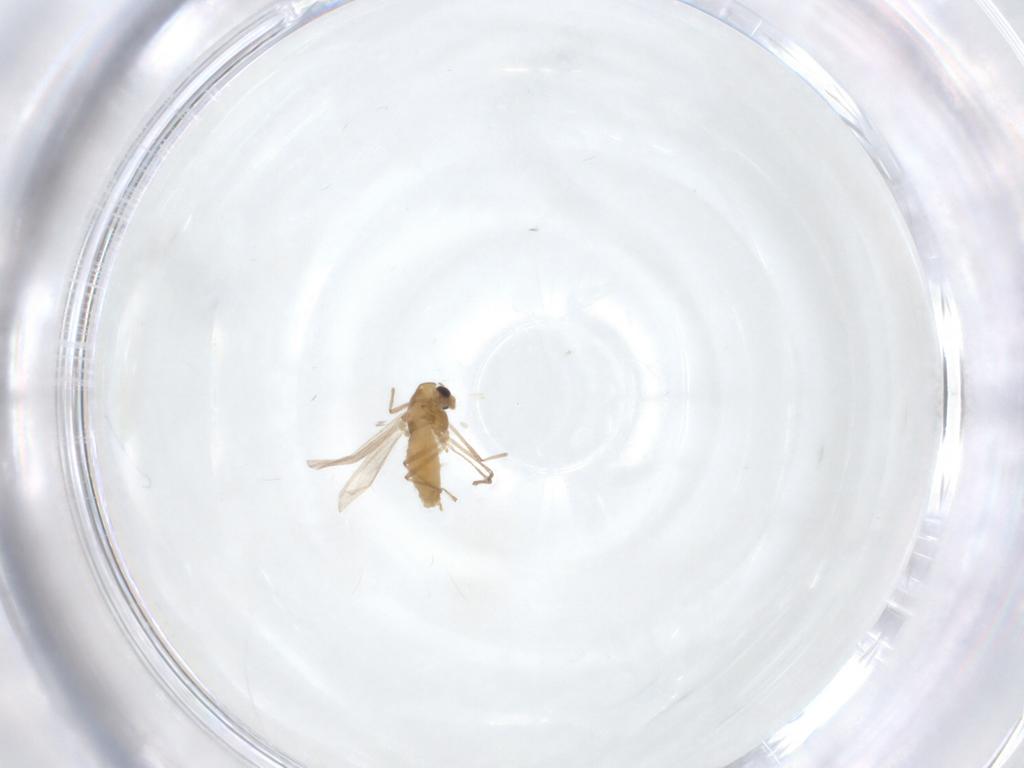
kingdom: Animalia
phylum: Arthropoda
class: Insecta
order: Diptera
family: Chironomidae
